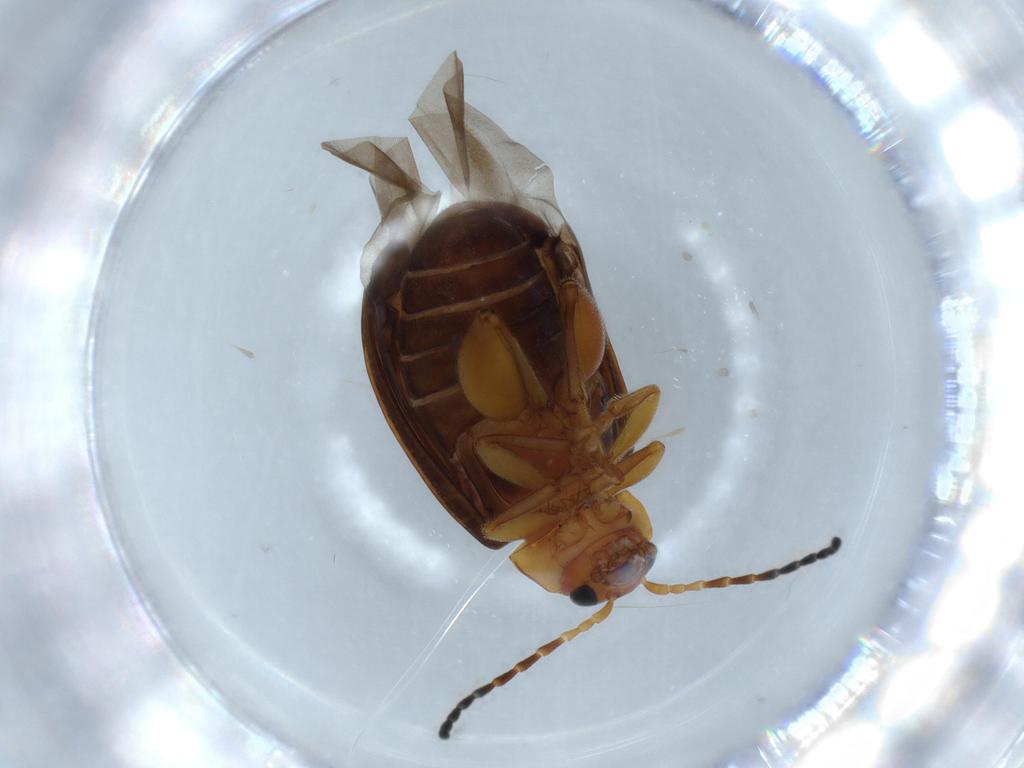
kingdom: Animalia
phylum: Arthropoda
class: Insecta
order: Coleoptera
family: Chrysomelidae
